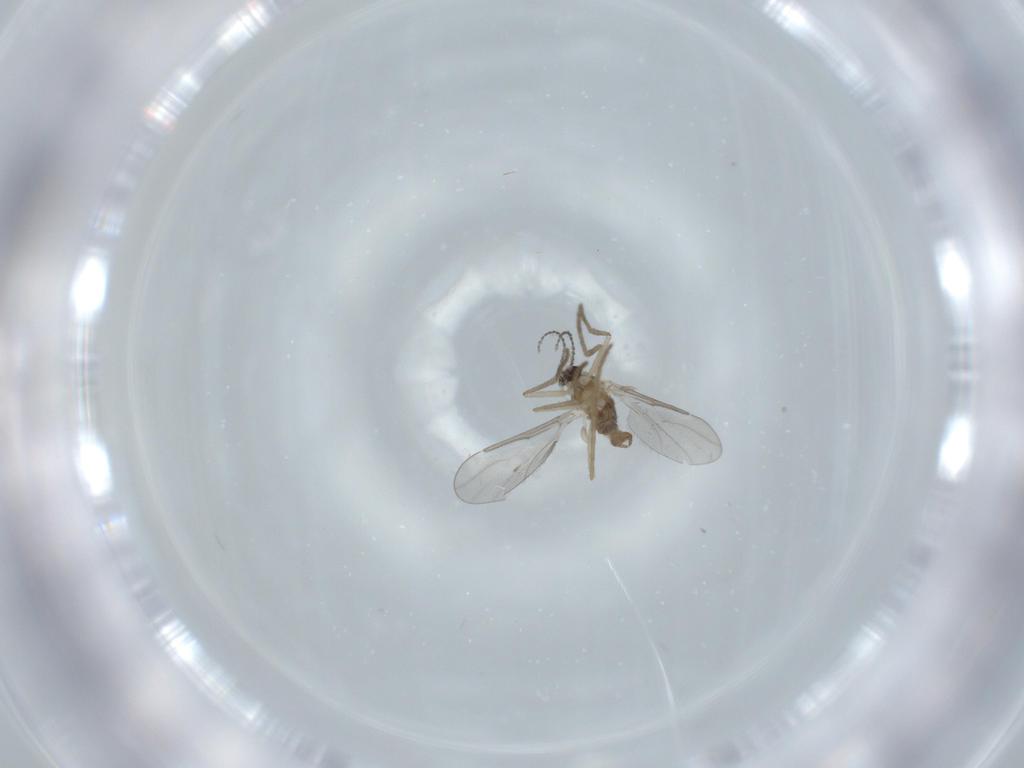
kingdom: Animalia
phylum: Arthropoda
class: Insecta
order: Diptera
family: Cecidomyiidae
